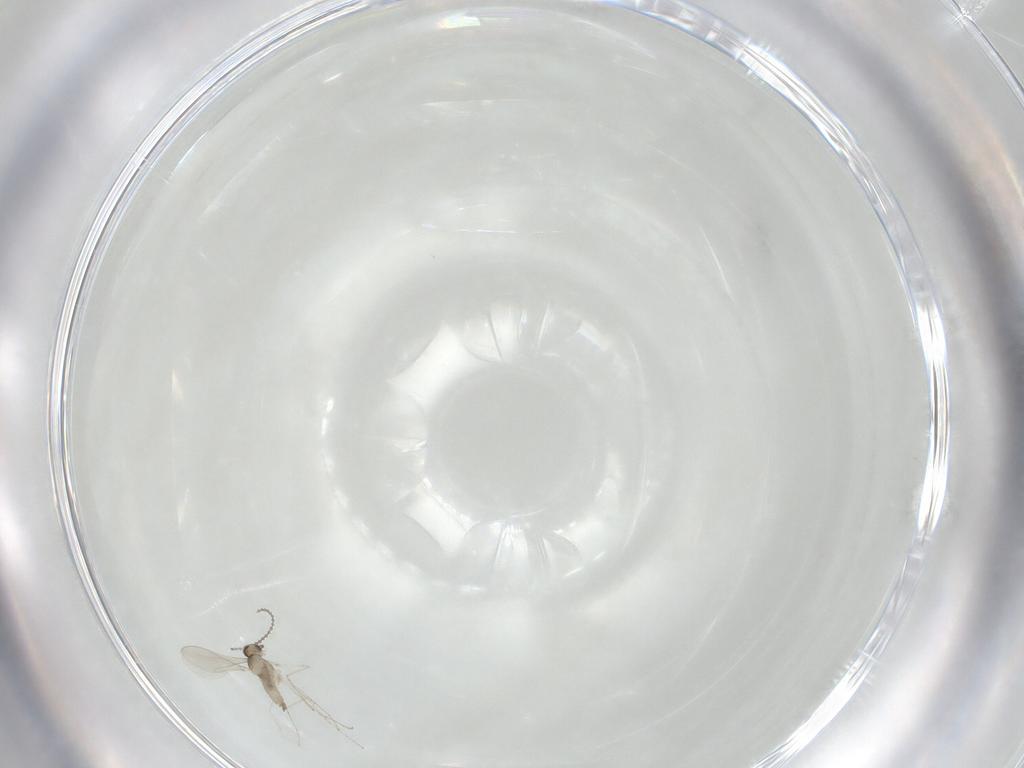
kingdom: Animalia
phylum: Arthropoda
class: Insecta
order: Diptera
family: Cecidomyiidae
